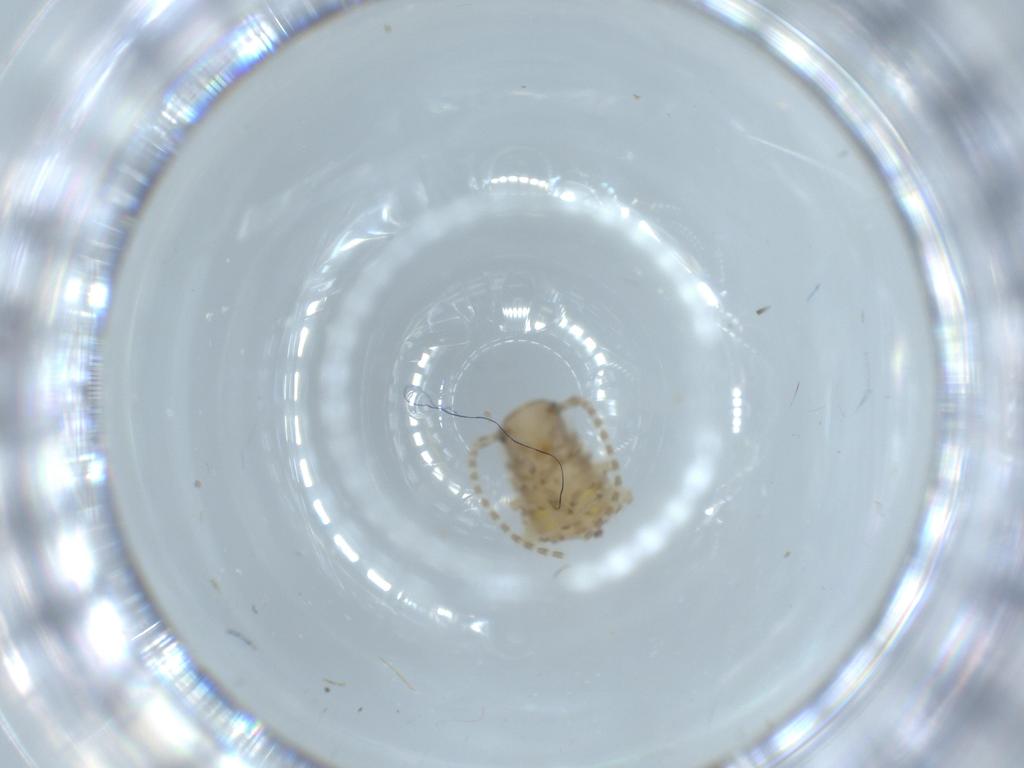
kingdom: Animalia
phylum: Arthropoda
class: Insecta
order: Blattodea
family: Ectobiidae
